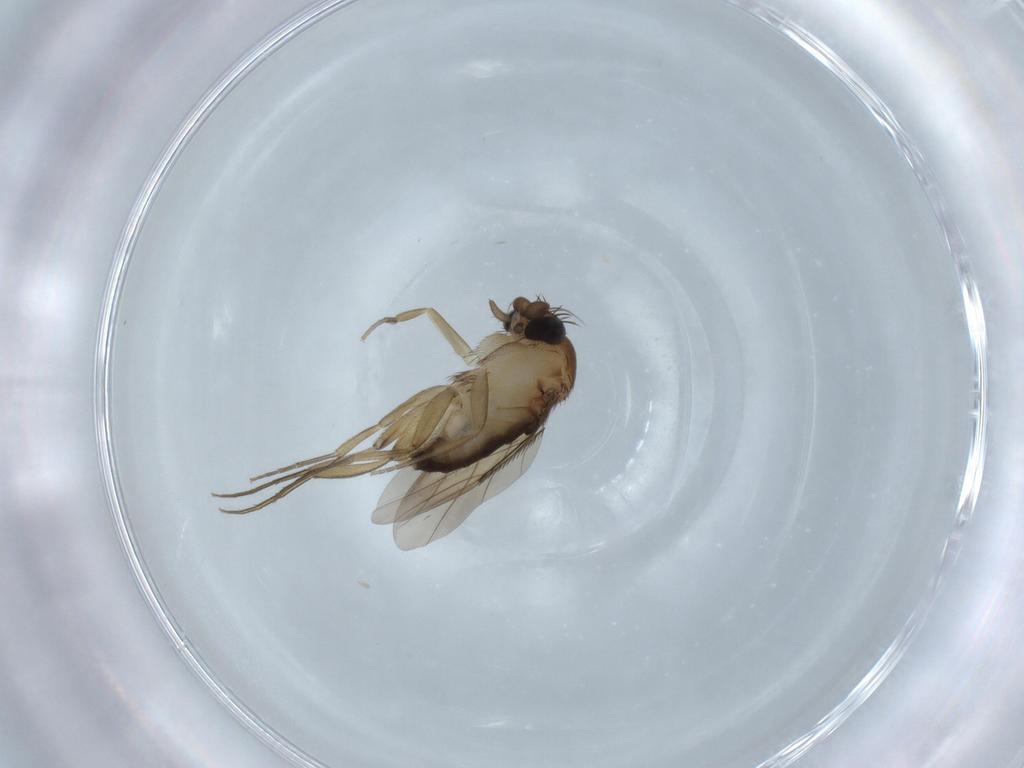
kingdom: Animalia
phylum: Arthropoda
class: Insecta
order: Diptera
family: Phoridae
